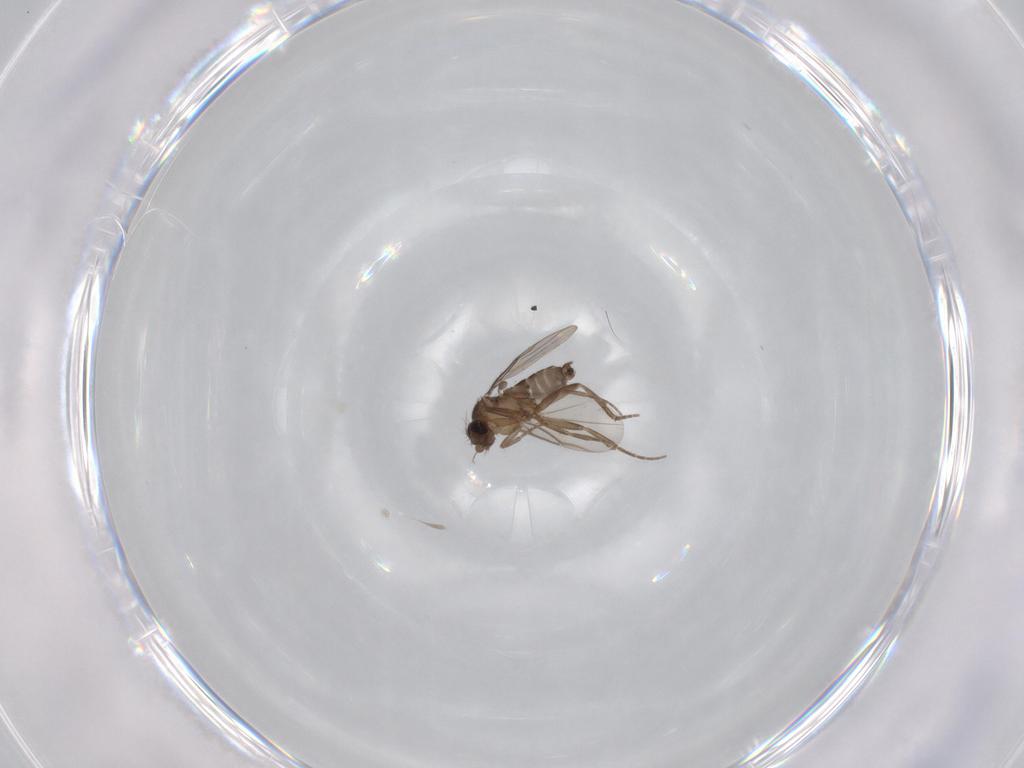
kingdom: Animalia
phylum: Arthropoda
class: Insecta
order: Diptera
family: Chironomidae
